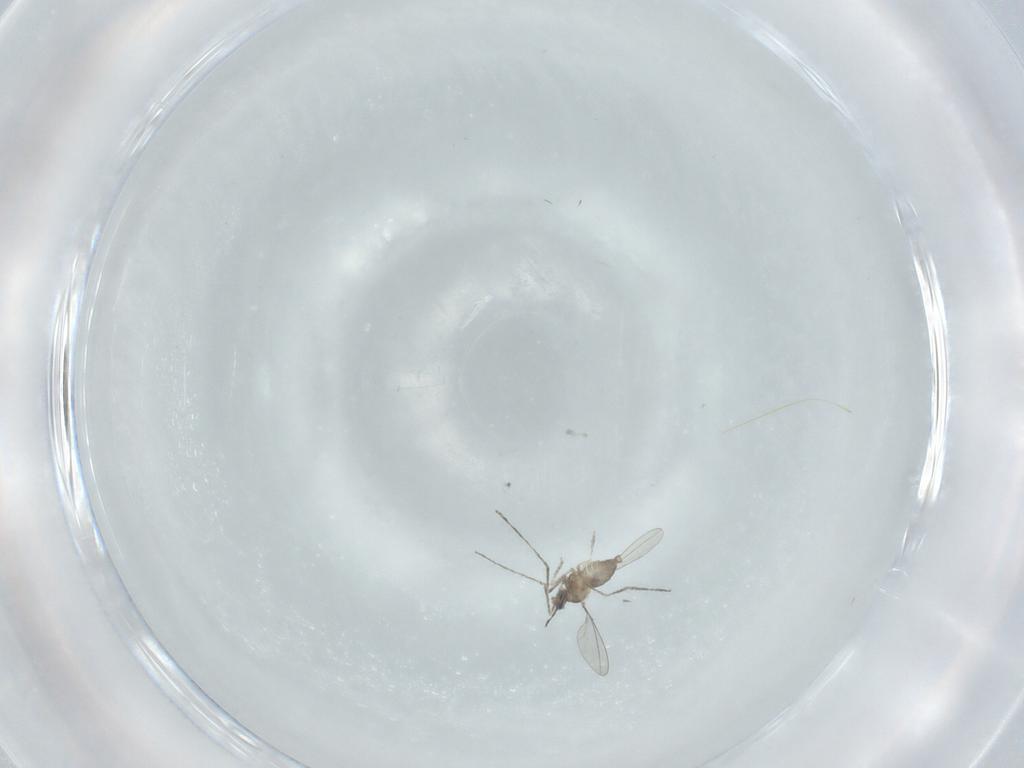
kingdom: Animalia
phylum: Arthropoda
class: Insecta
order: Diptera
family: Cecidomyiidae
